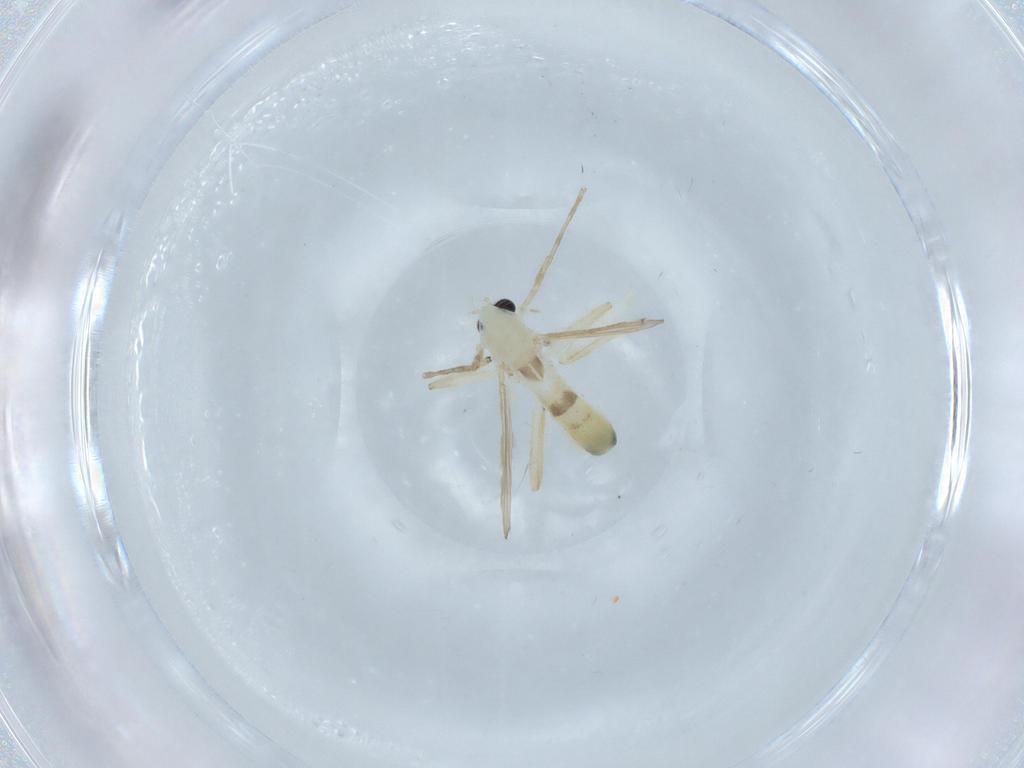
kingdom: Animalia
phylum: Arthropoda
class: Insecta
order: Diptera
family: Chironomidae
